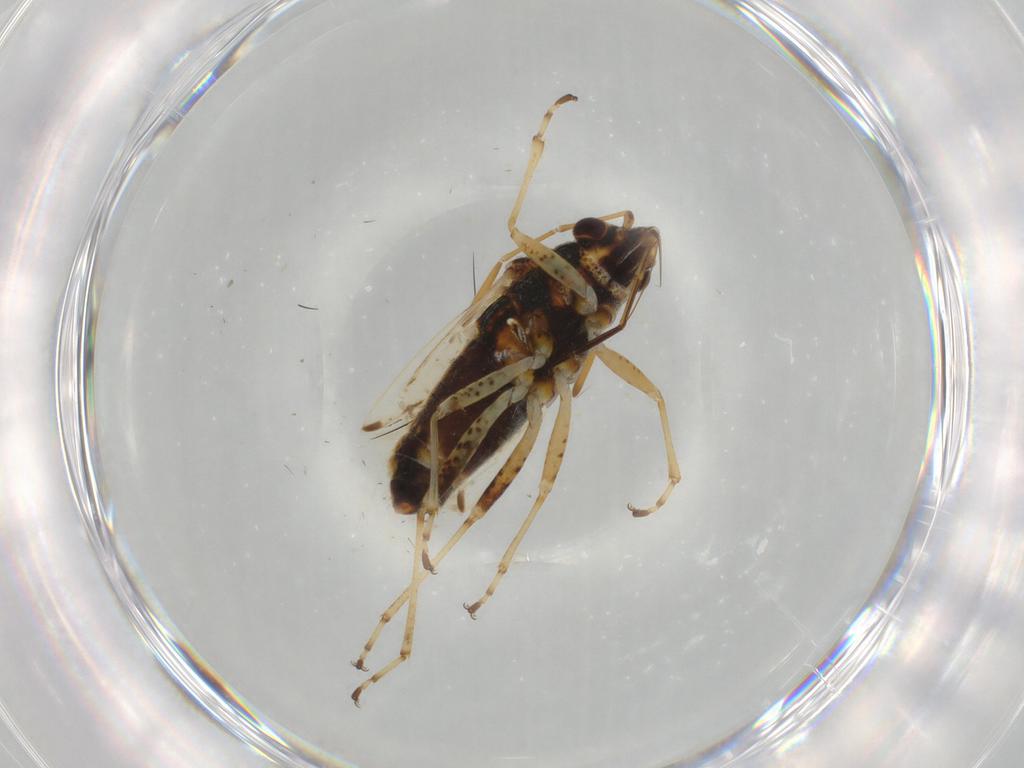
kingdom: Animalia
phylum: Arthropoda
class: Insecta
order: Hemiptera
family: Lygaeidae
